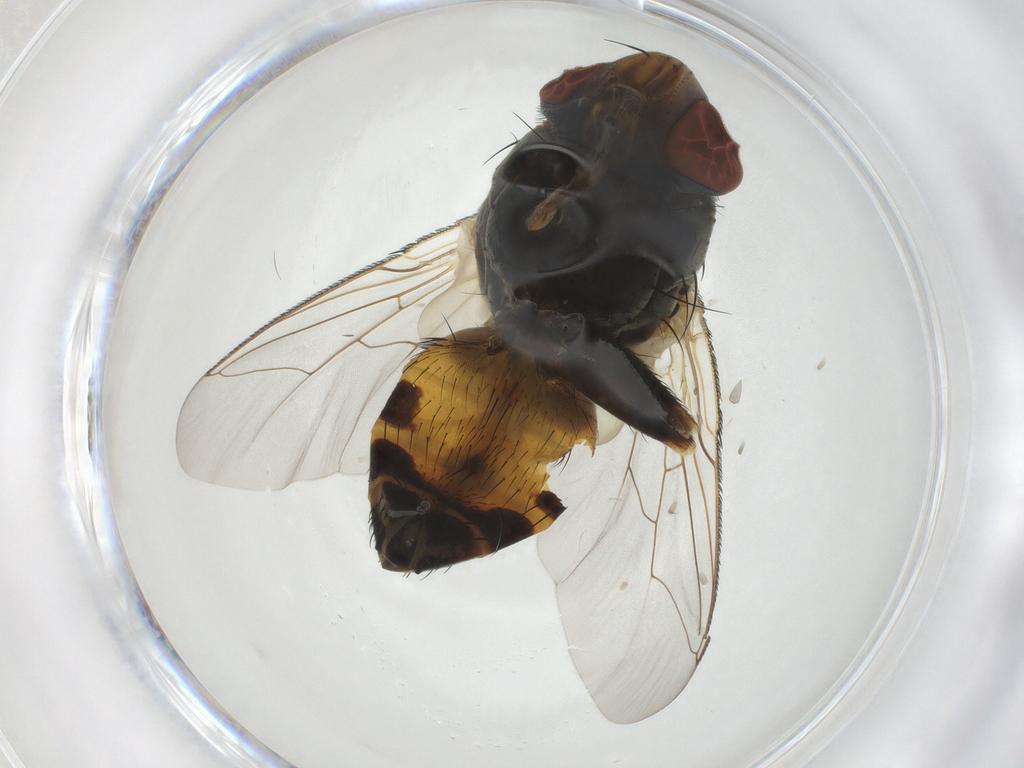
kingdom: Animalia
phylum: Arthropoda
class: Insecta
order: Diptera
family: Sarcophagidae
